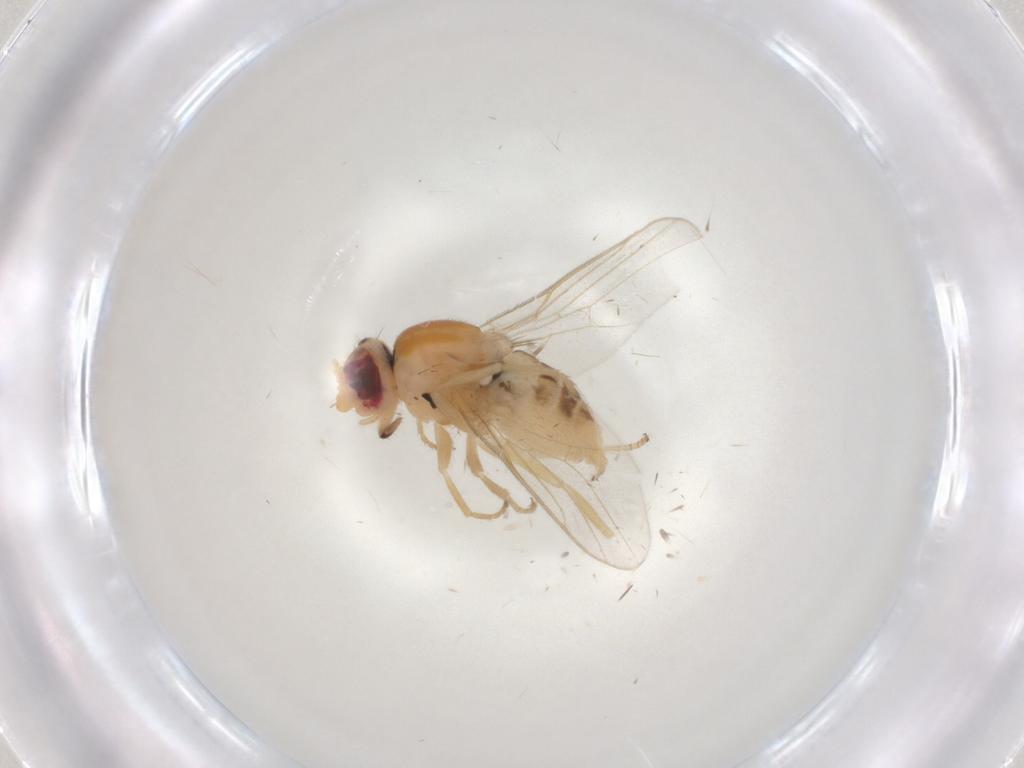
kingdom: Animalia
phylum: Arthropoda
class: Insecta
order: Diptera
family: Chloropidae
